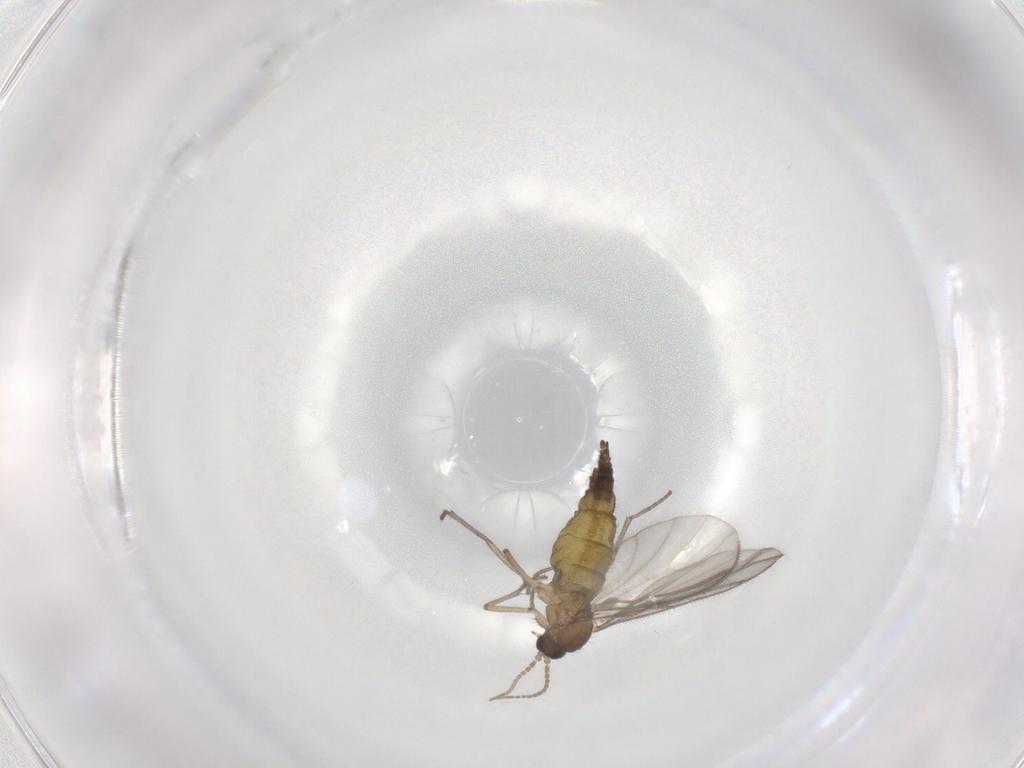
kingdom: Animalia
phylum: Arthropoda
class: Insecta
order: Diptera
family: Sciaridae
